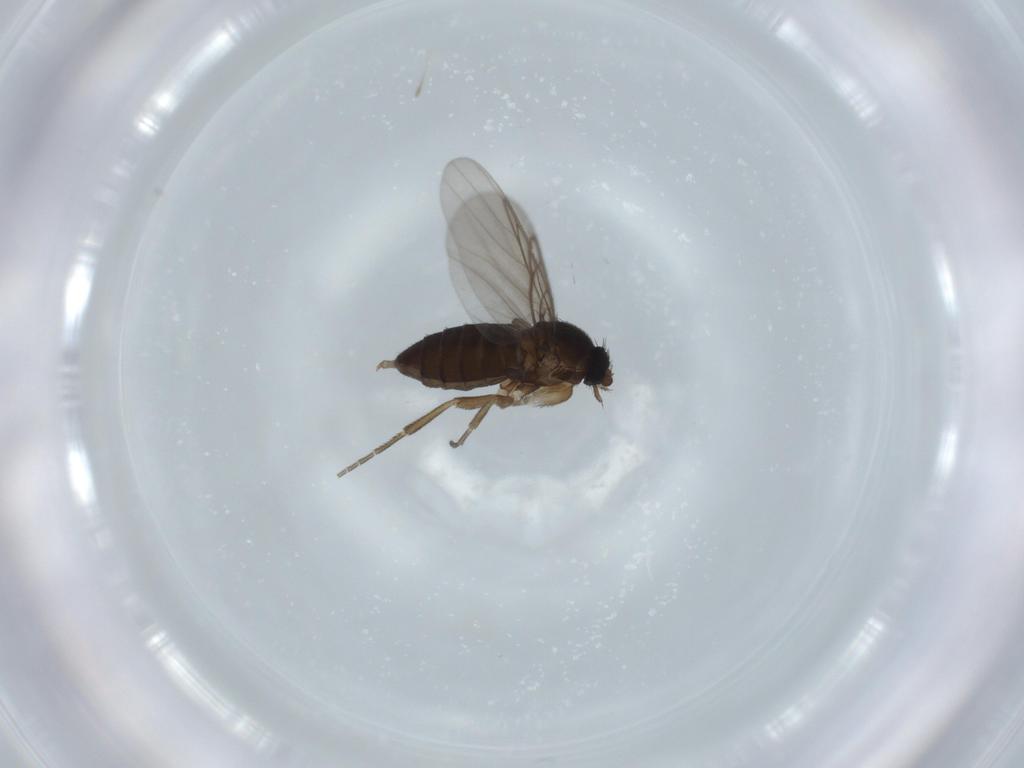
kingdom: Animalia
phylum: Arthropoda
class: Insecta
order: Diptera
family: Phoridae
